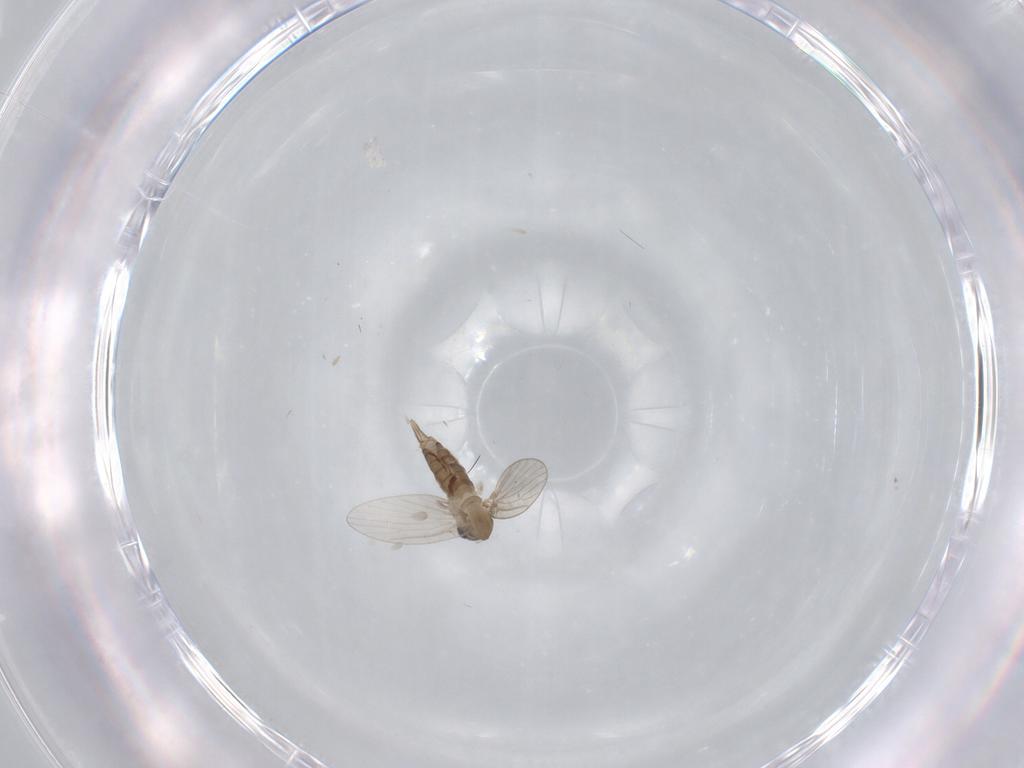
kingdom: Animalia
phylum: Arthropoda
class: Insecta
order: Diptera
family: Psychodidae
